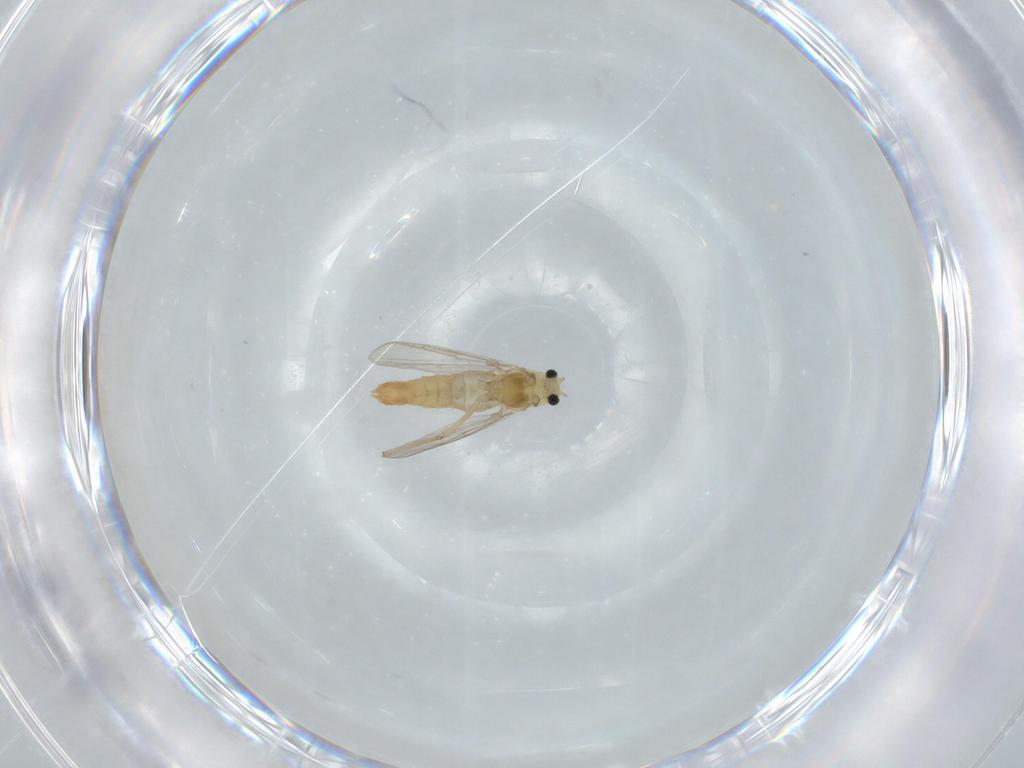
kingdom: Animalia
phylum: Arthropoda
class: Insecta
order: Diptera
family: Chironomidae
